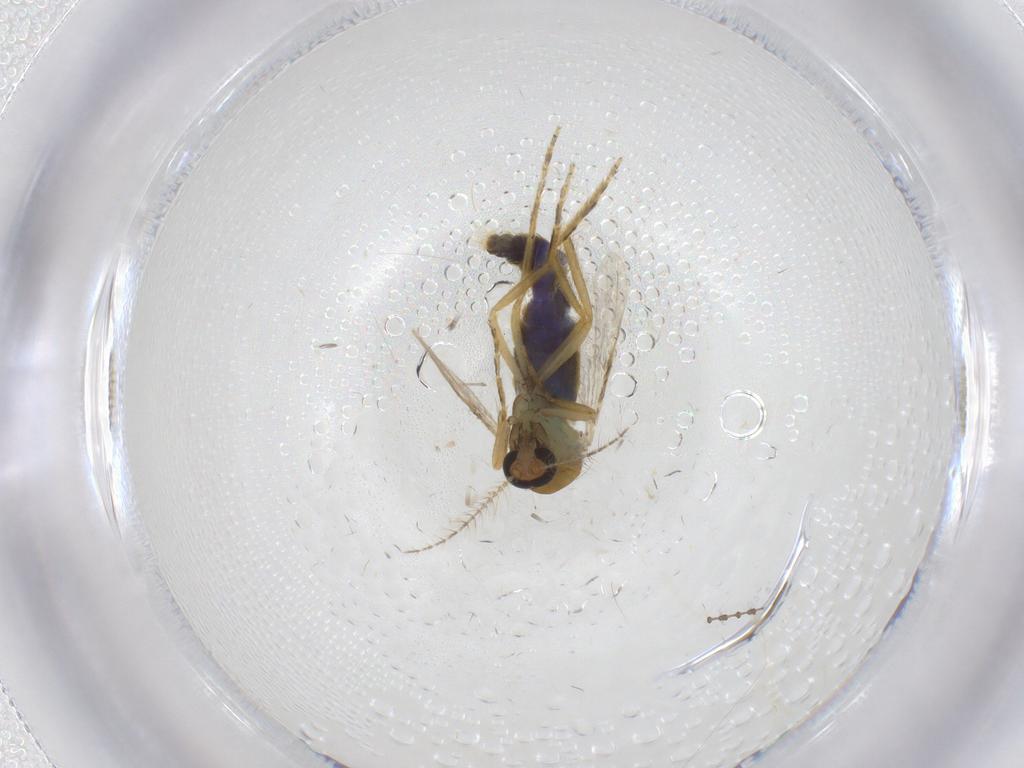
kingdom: Animalia
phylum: Arthropoda
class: Insecta
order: Diptera
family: Ceratopogonidae
